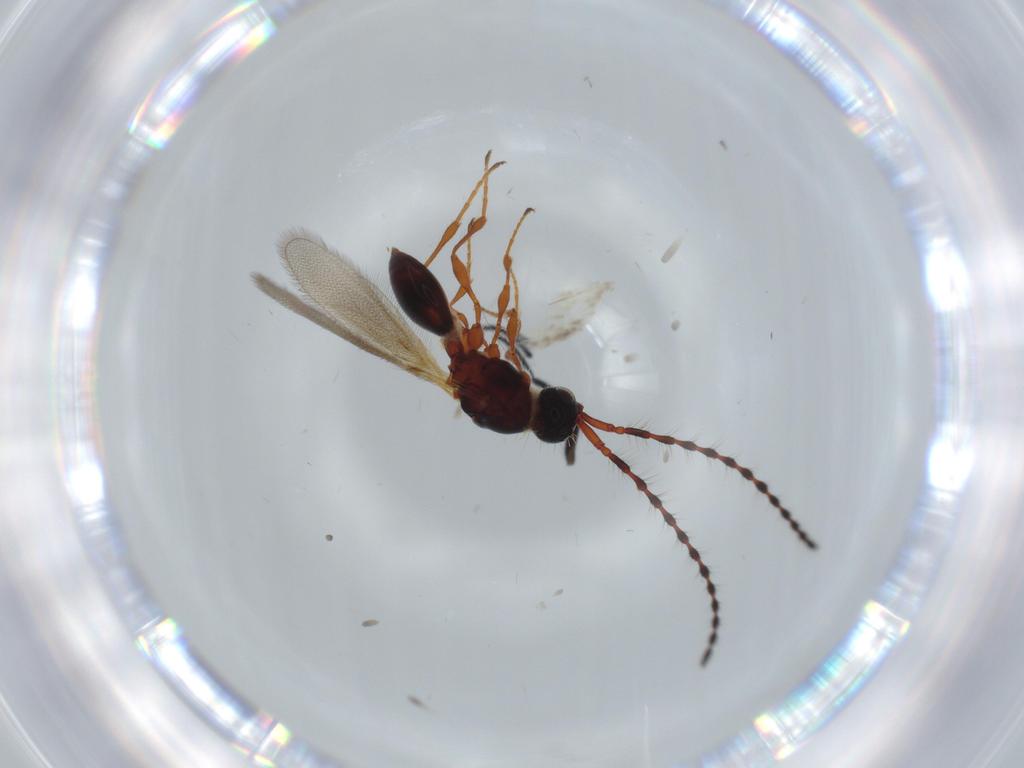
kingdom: Animalia
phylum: Arthropoda
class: Insecta
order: Hymenoptera
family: Diapriidae
